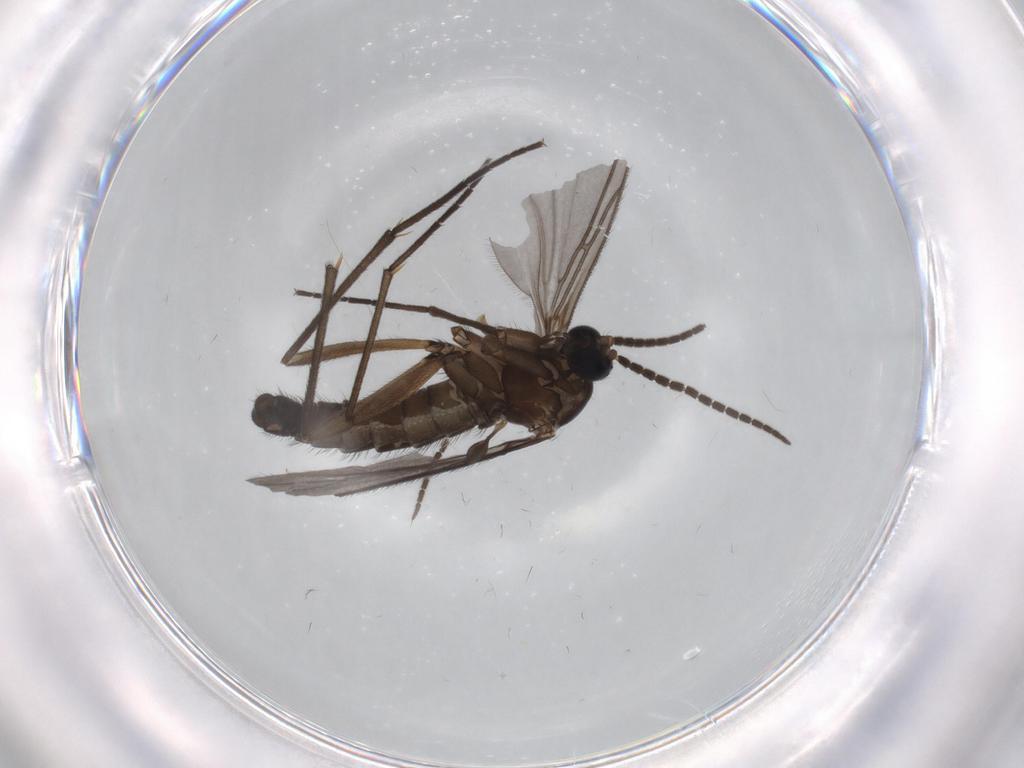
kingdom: Animalia
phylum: Arthropoda
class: Insecta
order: Diptera
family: Sciaridae
